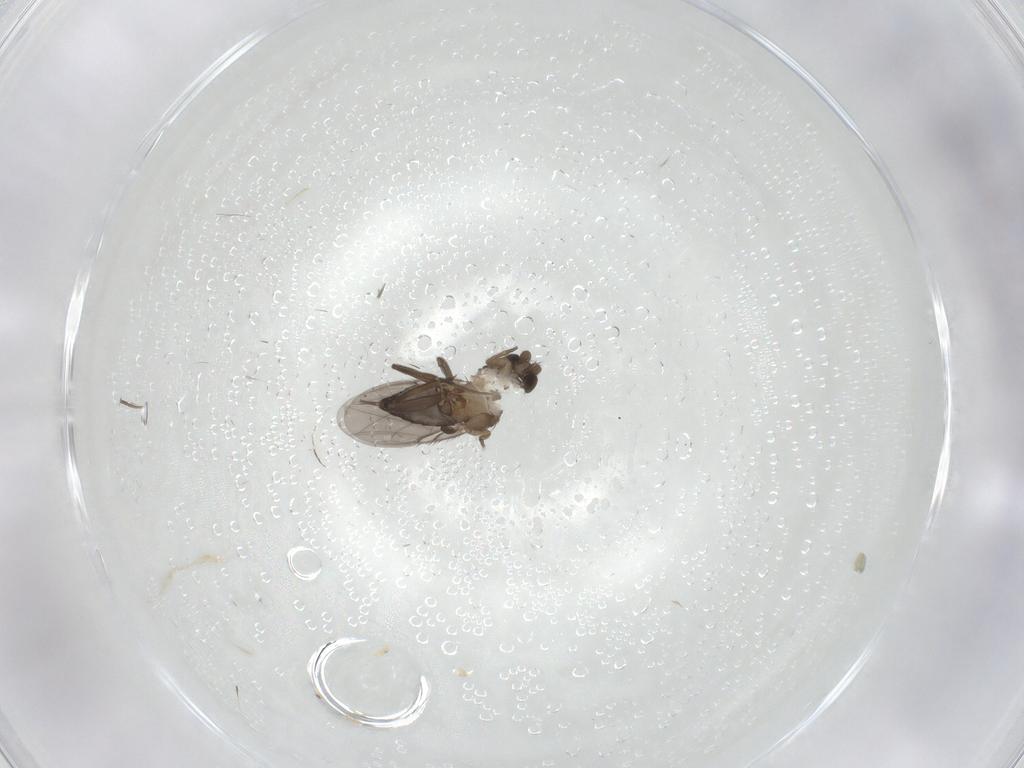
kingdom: Animalia
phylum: Arthropoda
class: Insecta
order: Diptera
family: Phoridae
